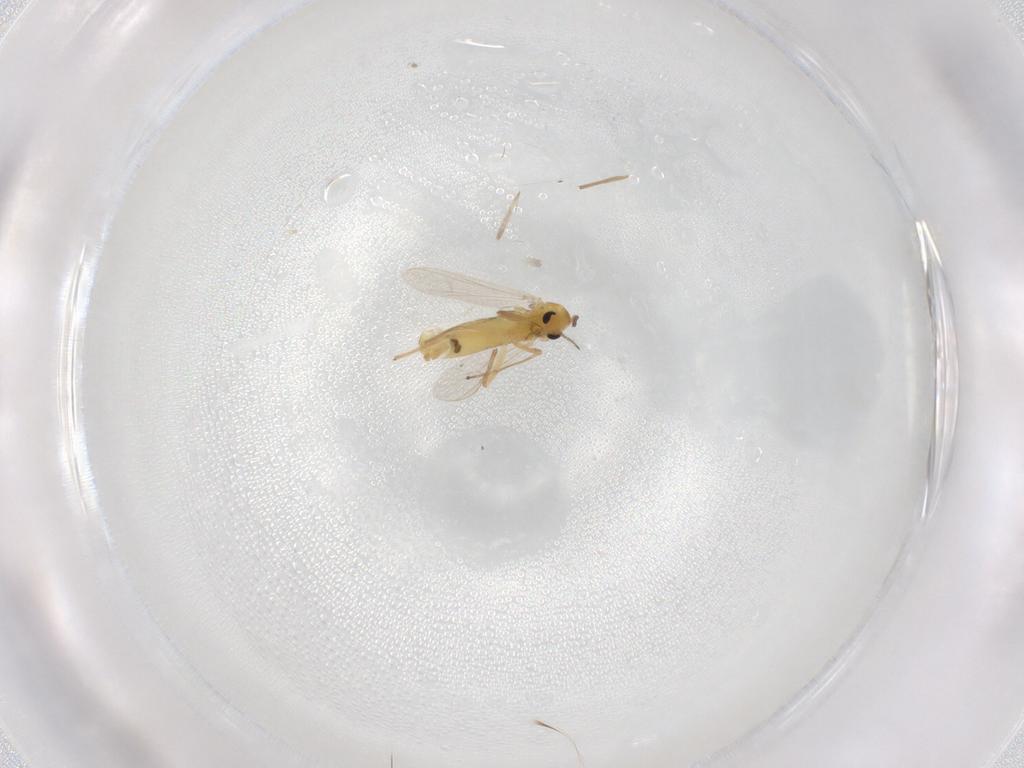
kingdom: Animalia
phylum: Arthropoda
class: Insecta
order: Diptera
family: Chironomidae
